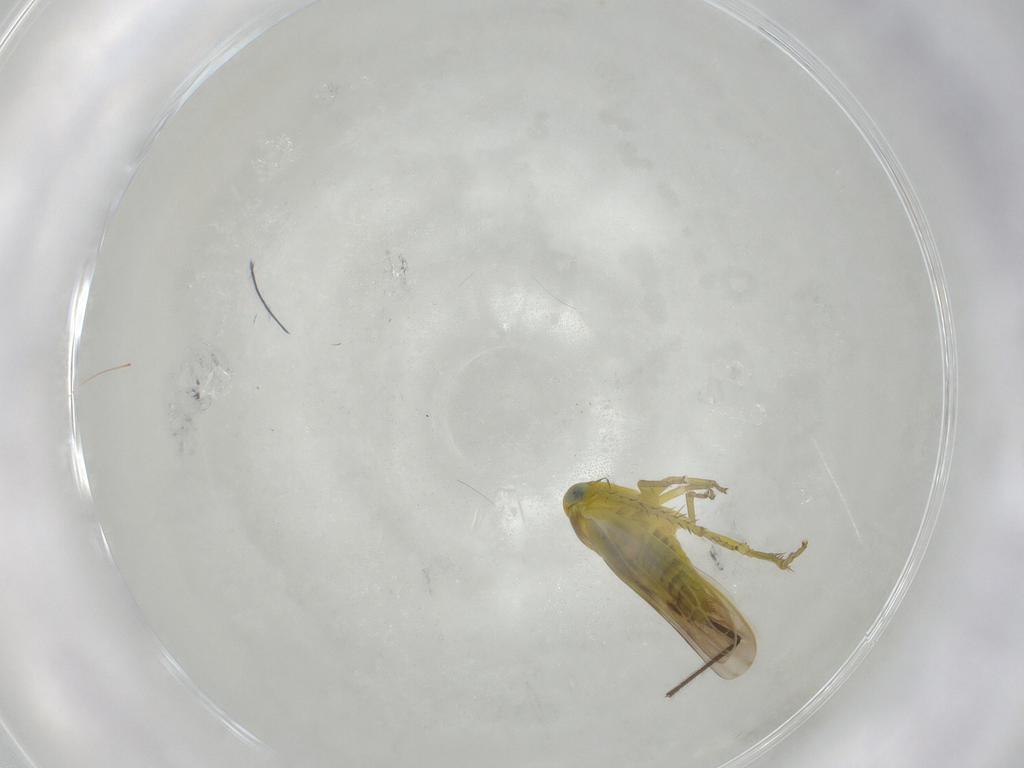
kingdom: Animalia
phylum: Arthropoda
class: Insecta
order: Hemiptera
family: Cicadellidae
